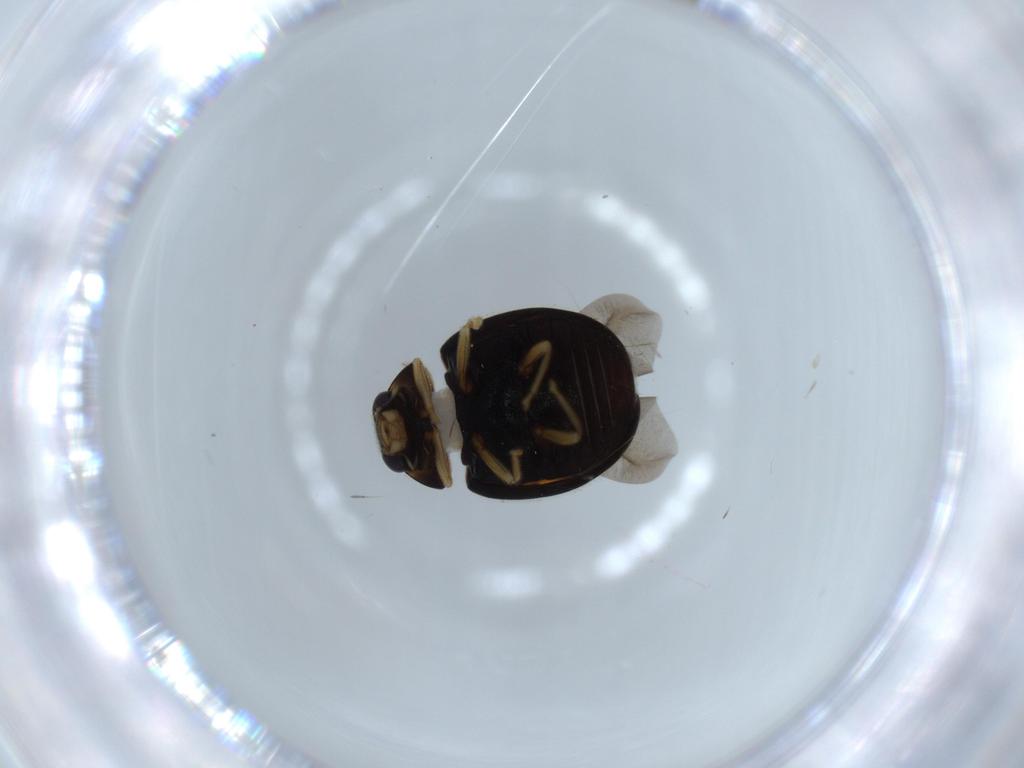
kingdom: Animalia
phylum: Arthropoda
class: Insecta
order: Coleoptera
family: Coccinellidae
